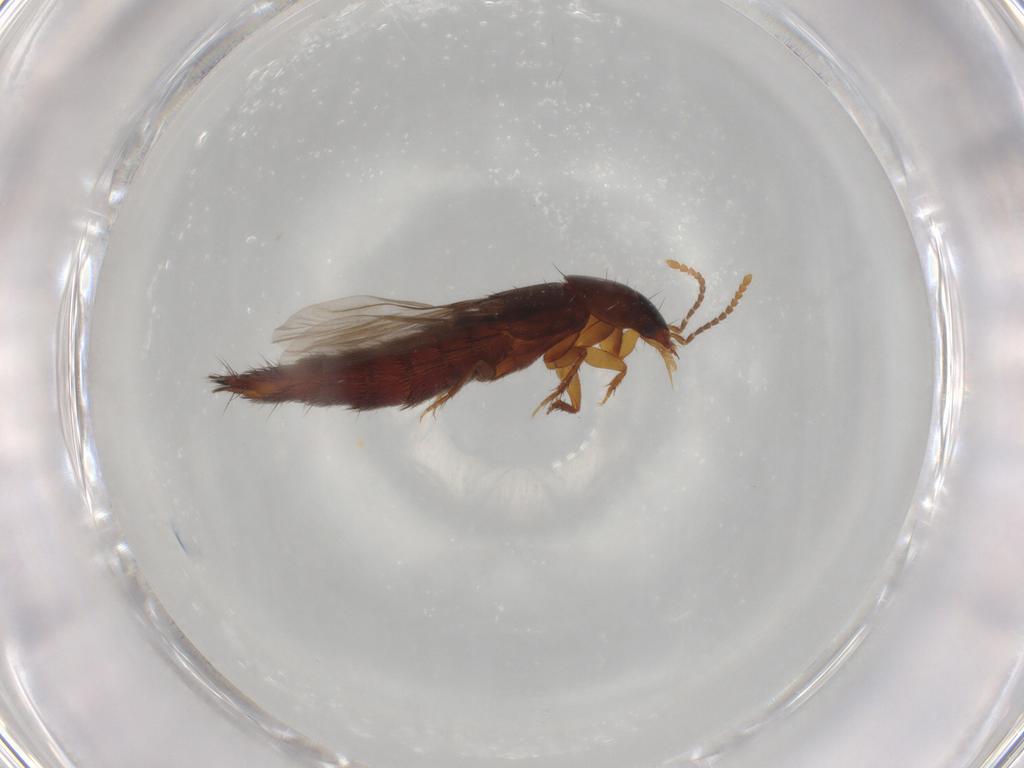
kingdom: Animalia
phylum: Arthropoda
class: Insecta
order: Coleoptera
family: Staphylinidae
